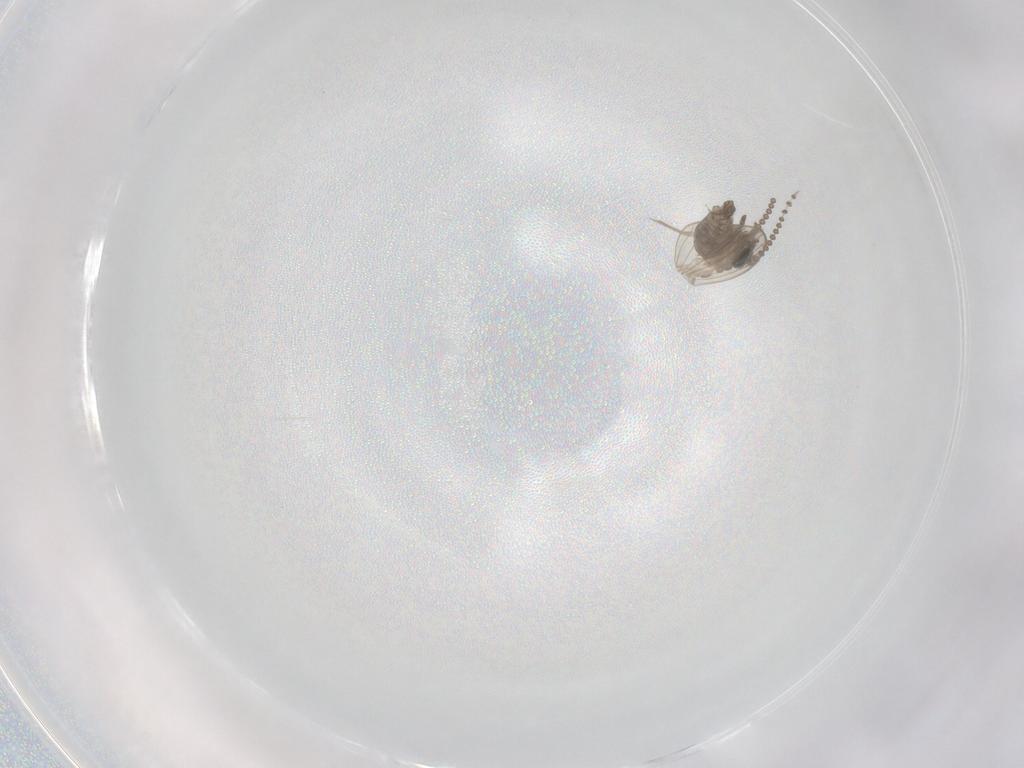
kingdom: Animalia
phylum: Arthropoda
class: Insecta
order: Diptera
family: Psychodidae
